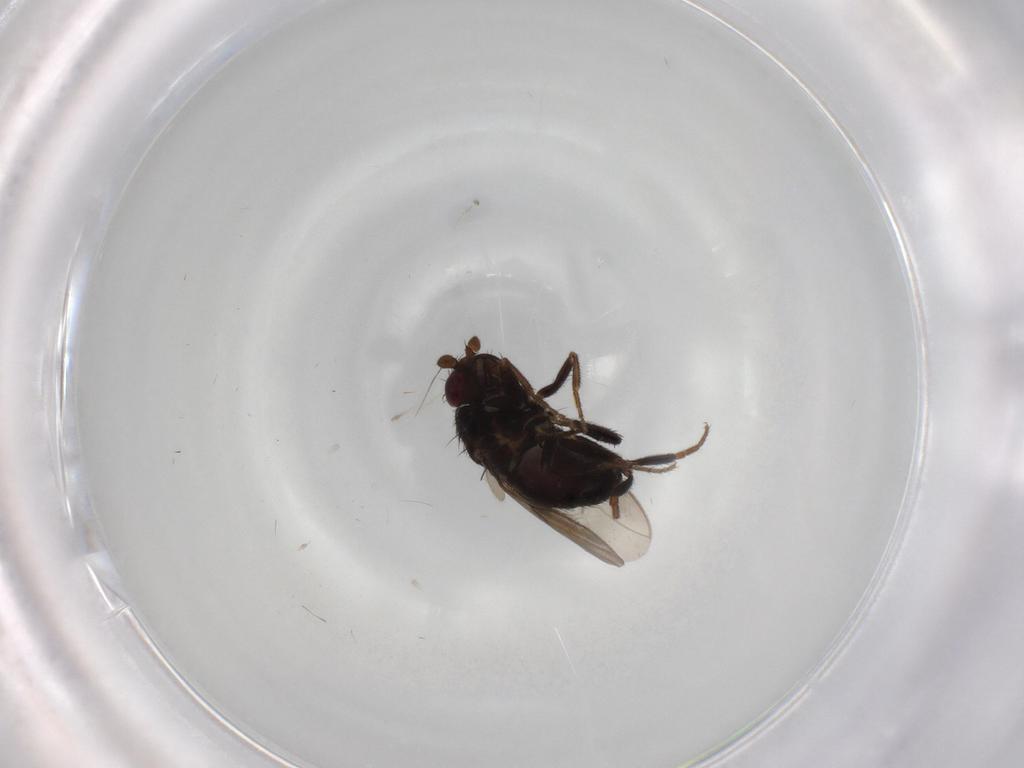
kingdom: Animalia
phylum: Arthropoda
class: Insecta
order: Diptera
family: Sphaeroceridae
